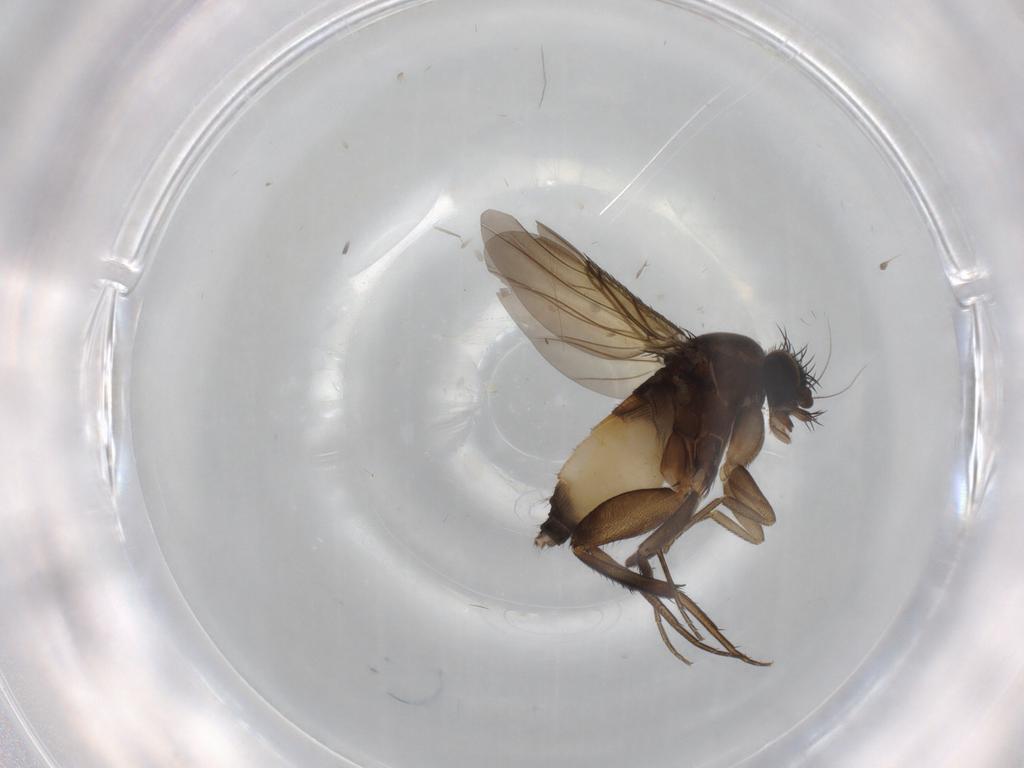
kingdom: Animalia
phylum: Arthropoda
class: Insecta
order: Diptera
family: Phoridae
